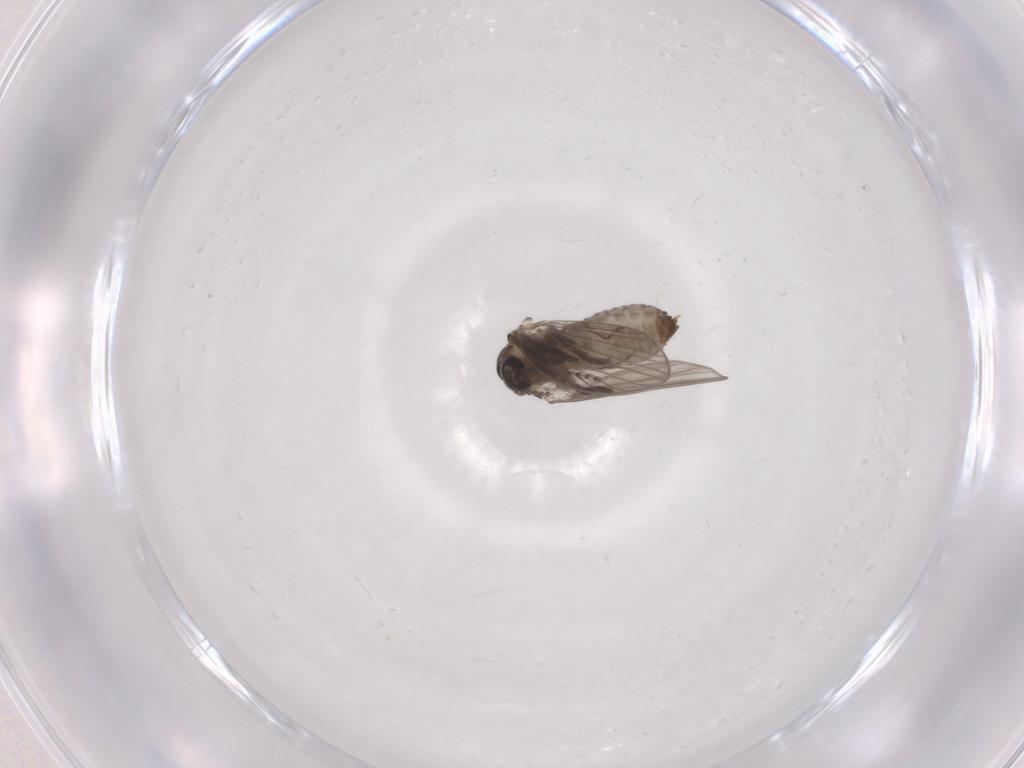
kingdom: Animalia
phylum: Arthropoda
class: Insecta
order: Diptera
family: Psychodidae
